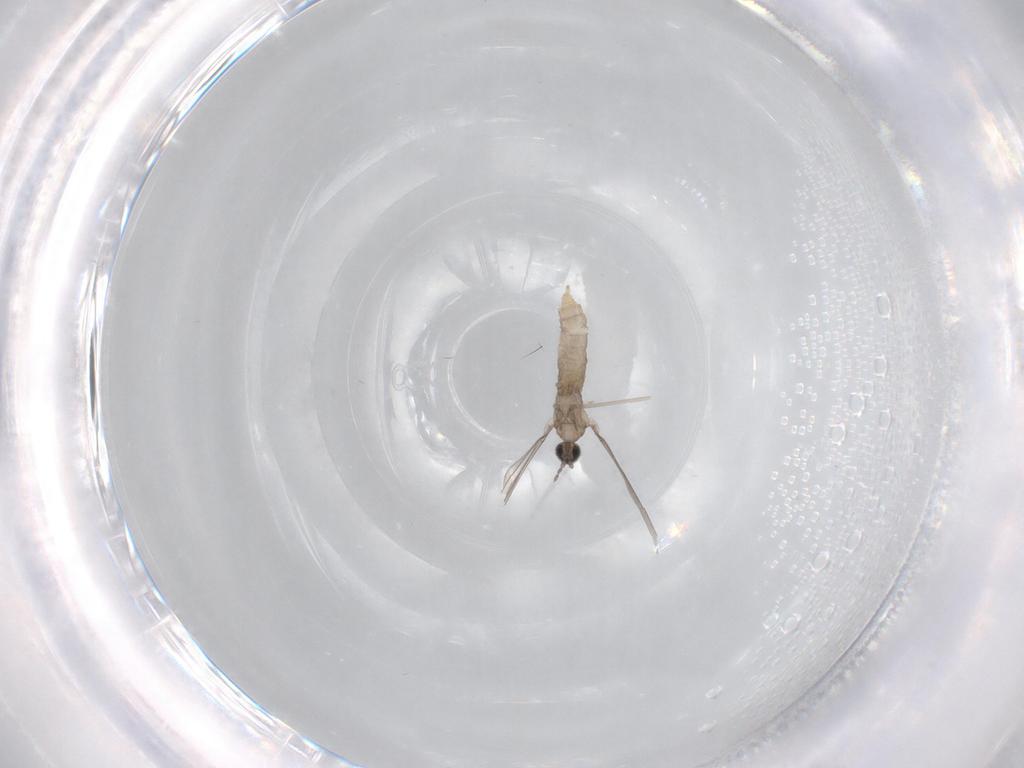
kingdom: Animalia
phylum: Arthropoda
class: Insecta
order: Diptera
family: Cecidomyiidae
